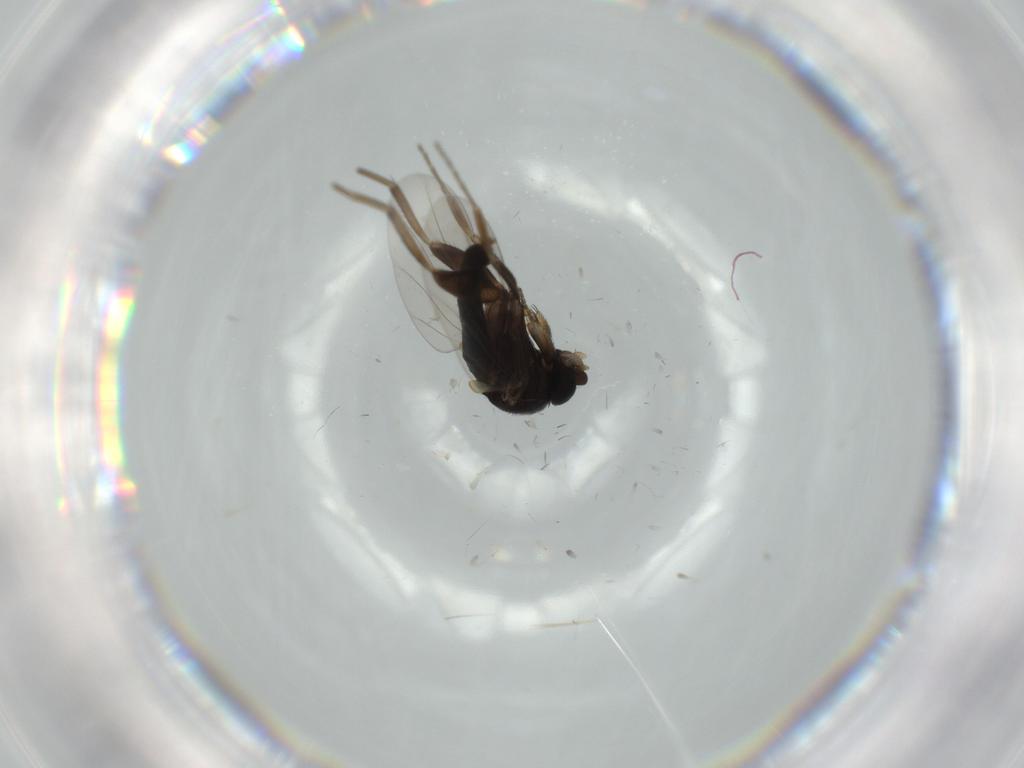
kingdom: Animalia
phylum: Arthropoda
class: Insecta
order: Diptera
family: Phoridae
